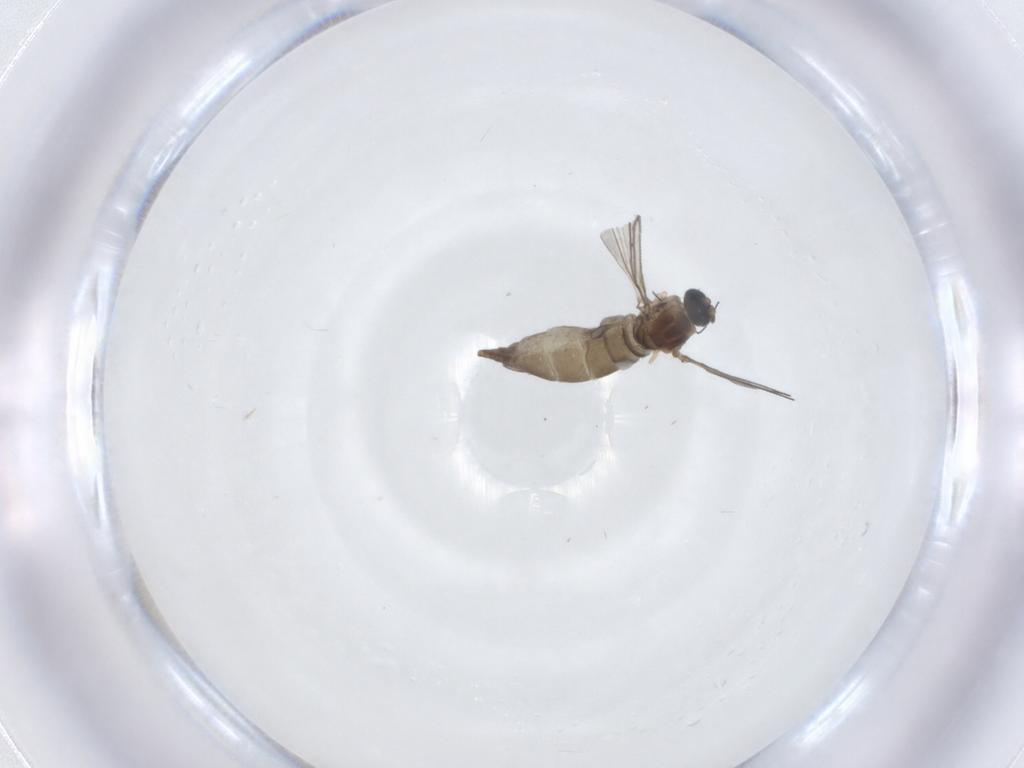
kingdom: Animalia
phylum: Arthropoda
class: Insecta
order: Diptera
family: Sciaridae
